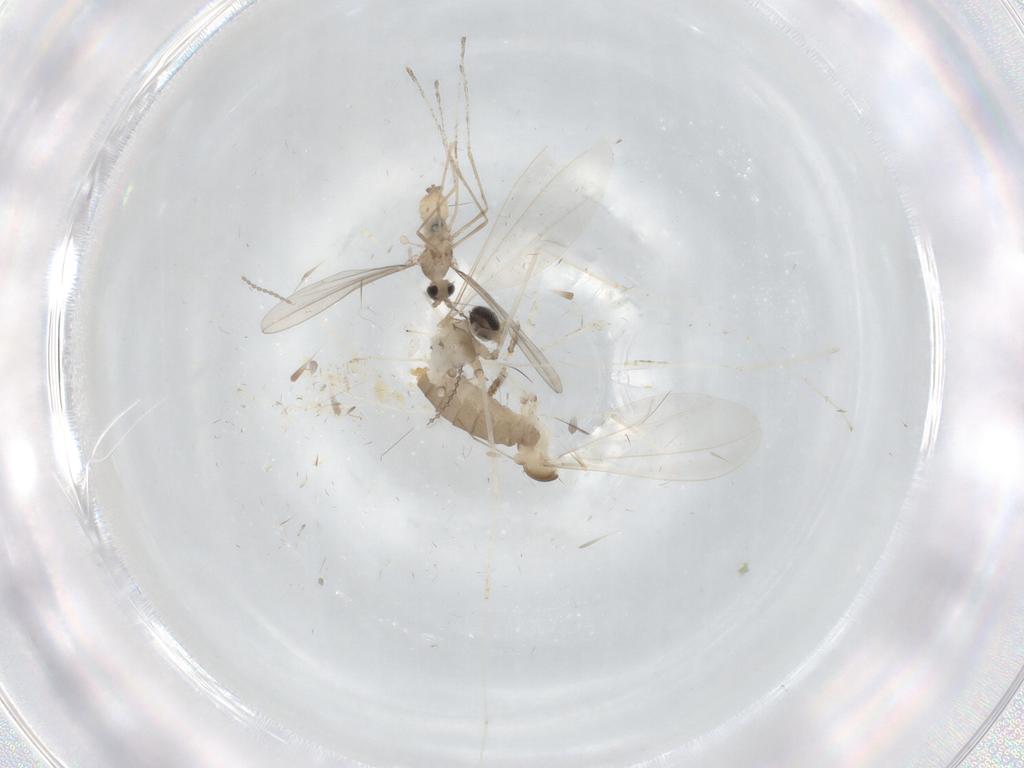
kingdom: Animalia
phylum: Arthropoda
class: Insecta
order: Diptera
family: Psychodidae
